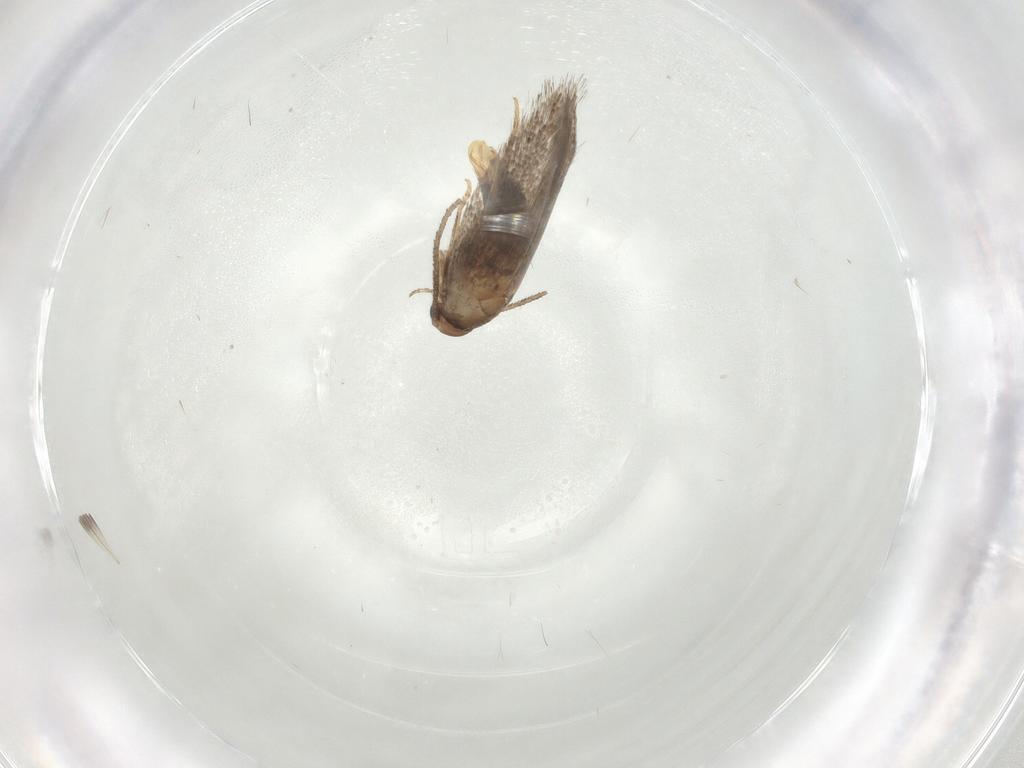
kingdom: Animalia
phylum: Arthropoda
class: Insecta
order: Lepidoptera
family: Elachistidae
